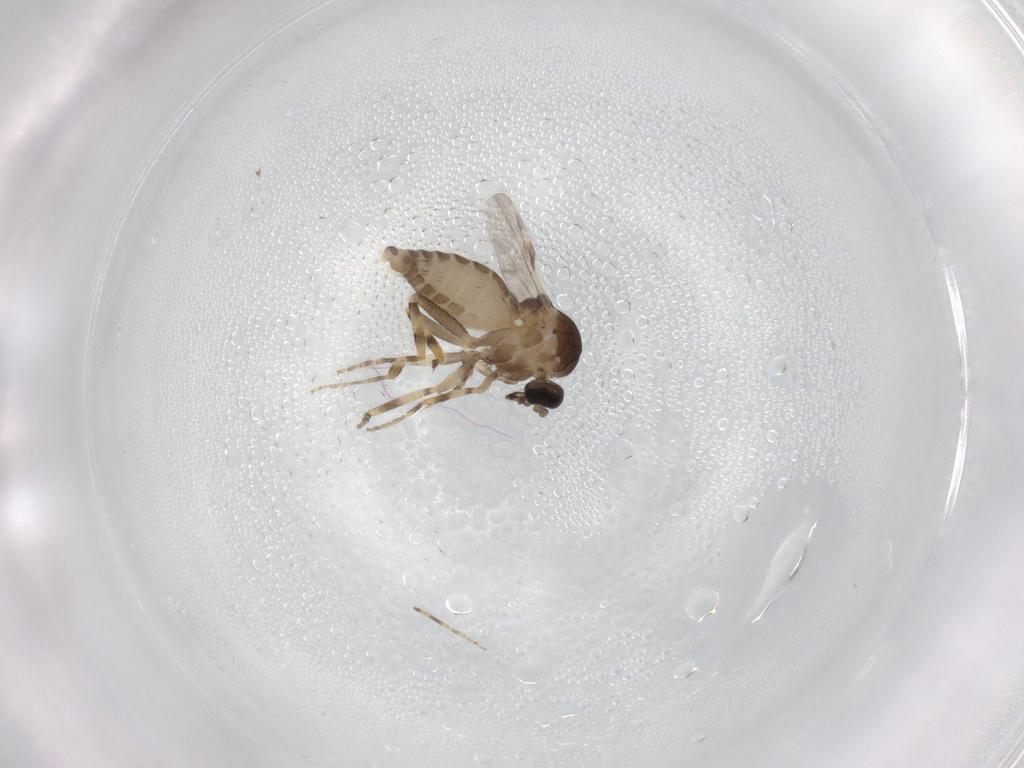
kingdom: Animalia
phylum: Arthropoda
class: Insecta
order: Diptera
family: Ceratopogonidae
